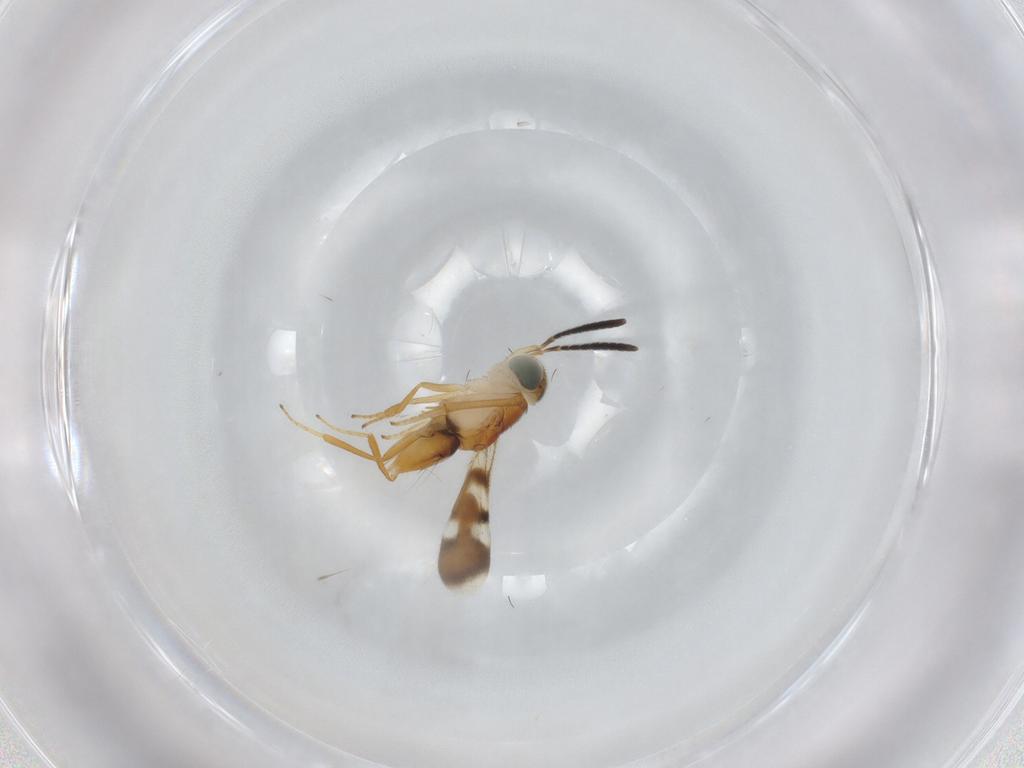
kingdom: Animalia
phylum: Arthropoda
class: Insecta
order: Hymenoptera
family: Encyrtidae
